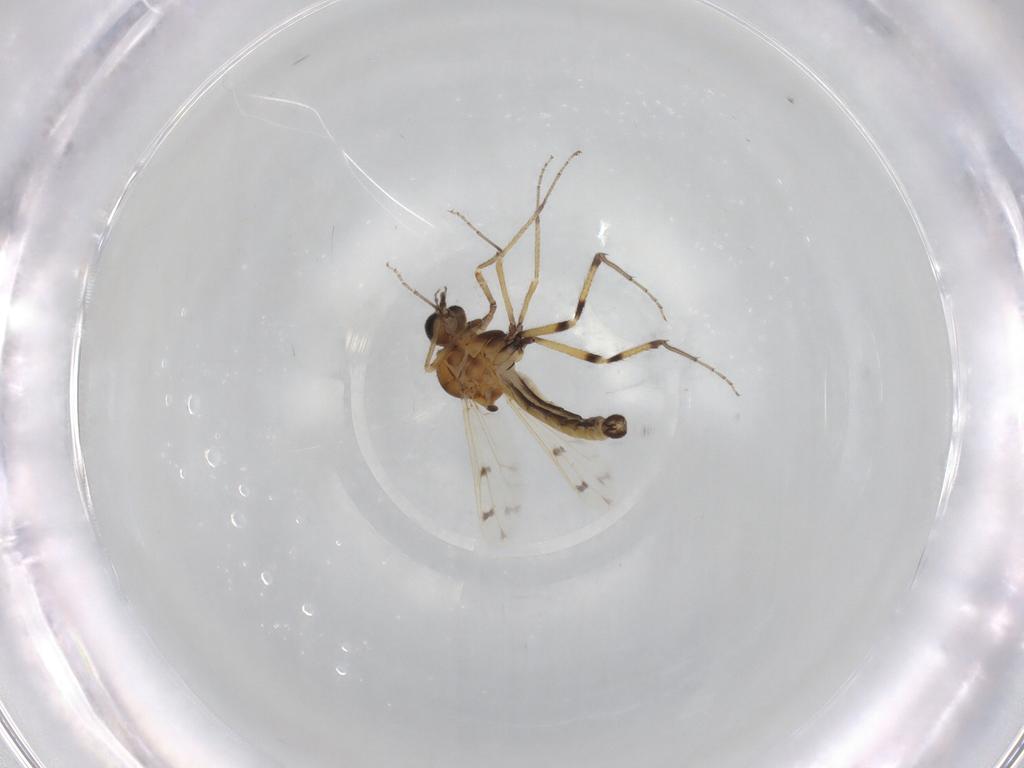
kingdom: Animalia
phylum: Arthropoda
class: Insecta
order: Diptera
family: Ceratopogonidae
